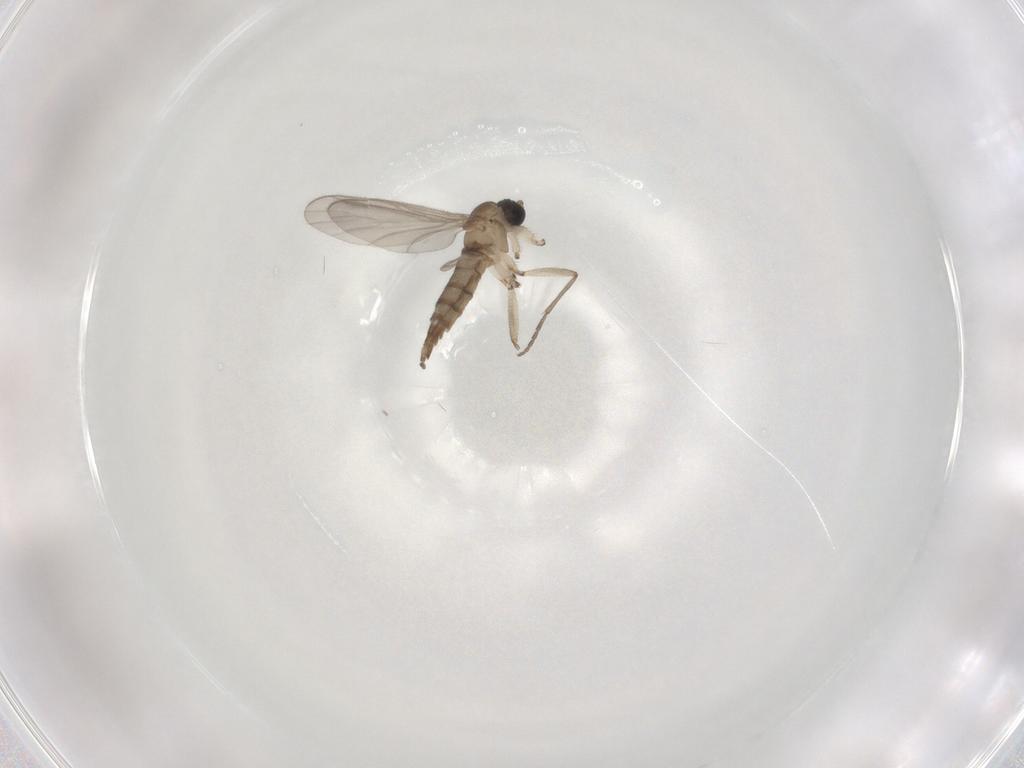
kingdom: Animalia
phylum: Arthropoda
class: Insecta
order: Diptera
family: Sciaridae
